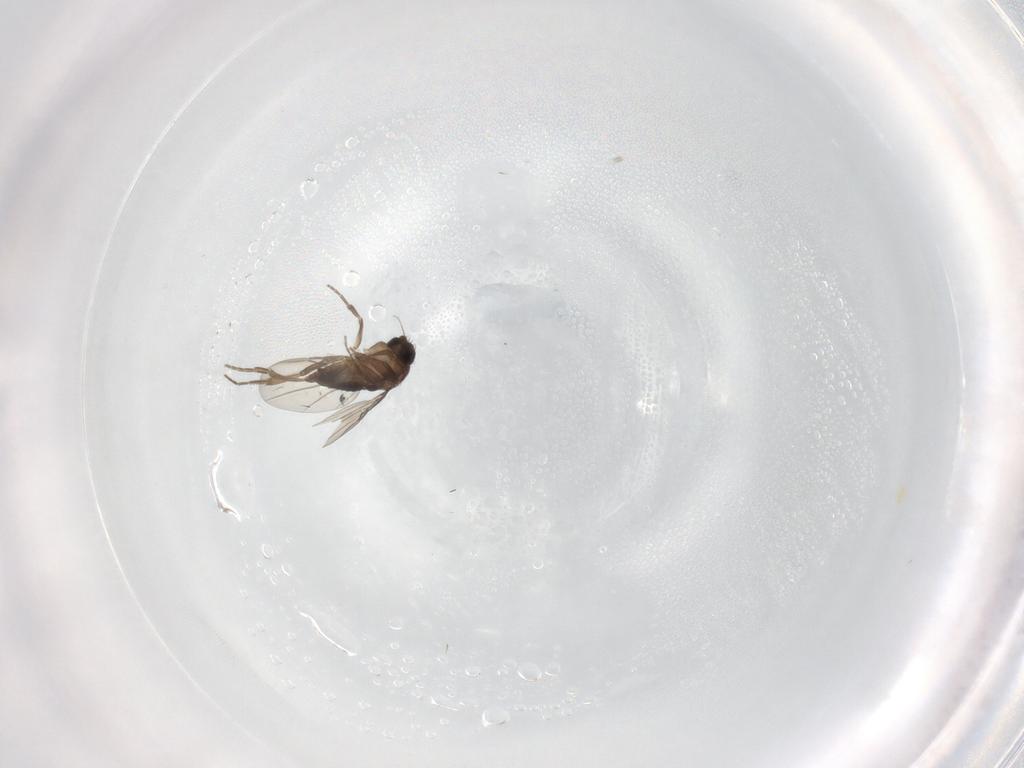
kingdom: Animalia
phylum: Arthropoda
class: Insecta
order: Diptera
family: Phoridae
